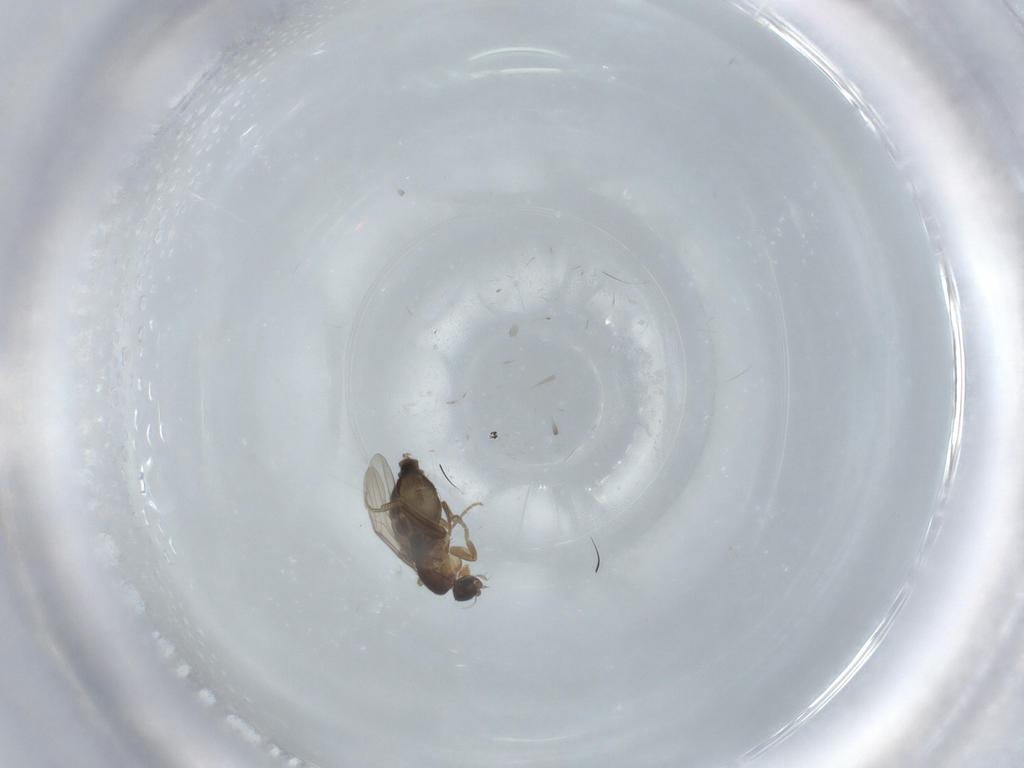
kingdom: Animalia
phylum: Arthropoda
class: Insecta
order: Diptera
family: Phoridae
